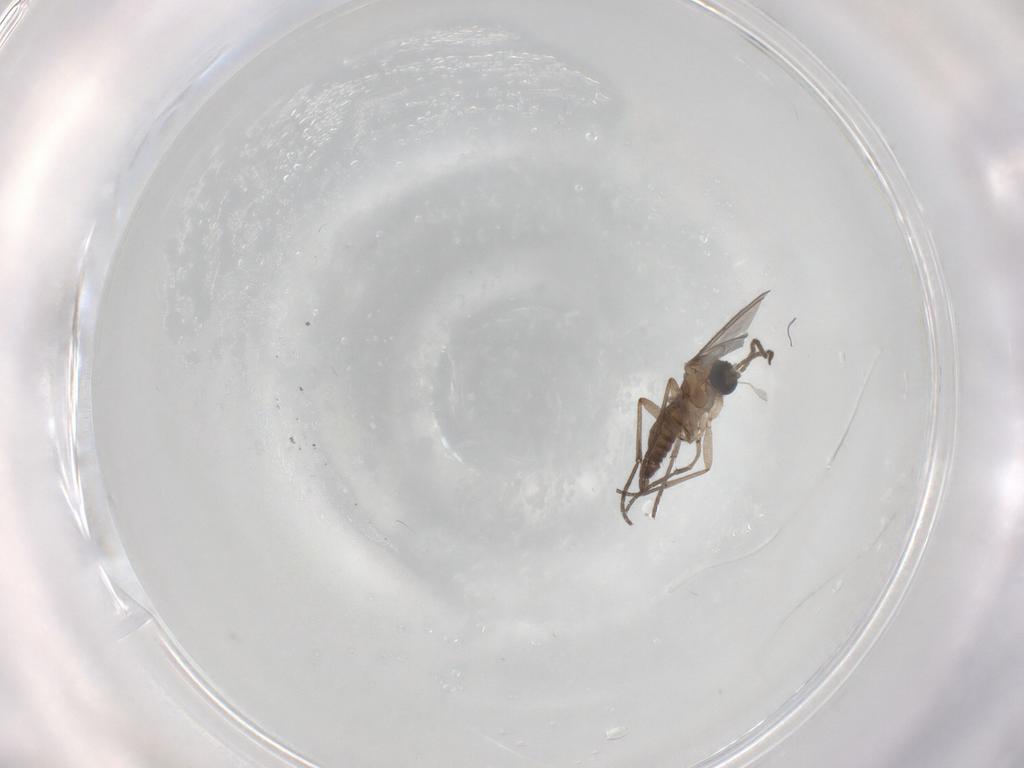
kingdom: Animalia
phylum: Arthropoda
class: Insecta
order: Diptera
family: Sciaridae
